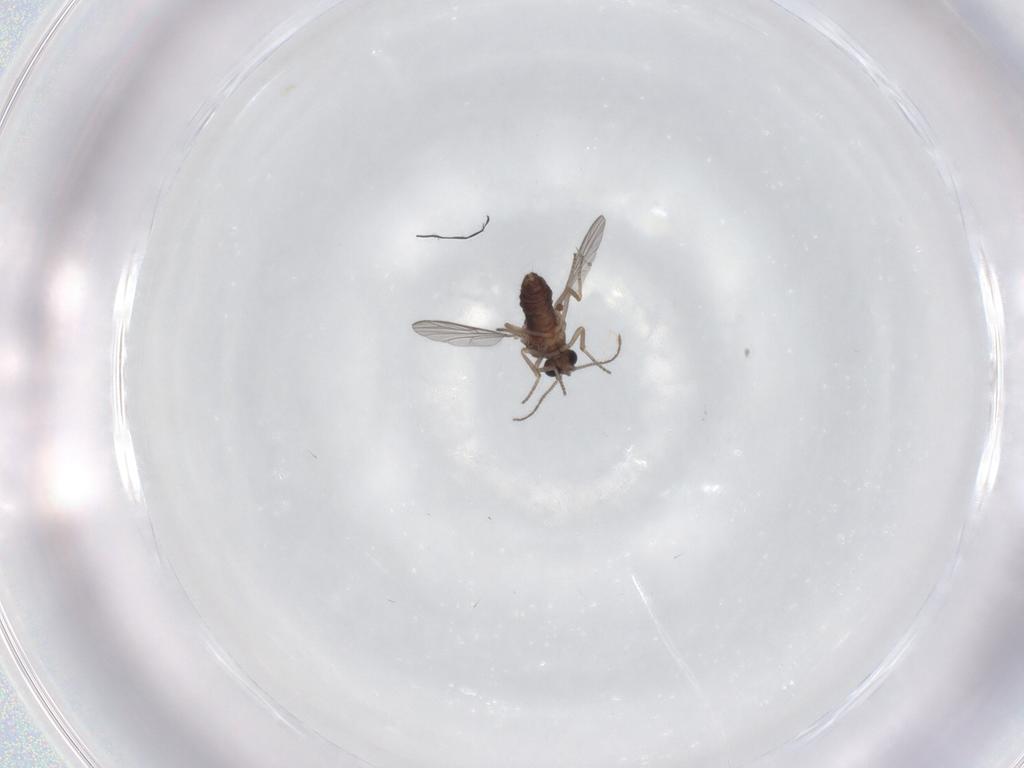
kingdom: Animalia
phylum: Arthropoda
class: Insecta
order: Diptera
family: Ceratopogonidae
